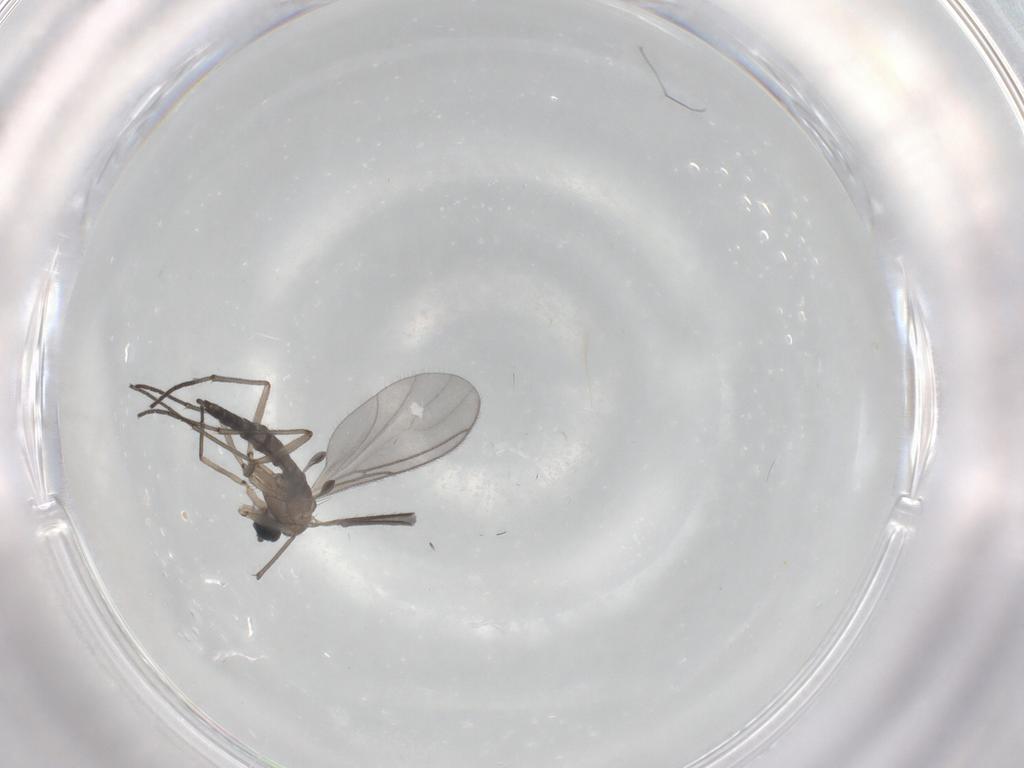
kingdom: Animalia
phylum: Arthropoda
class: Insecta
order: Diptera
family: Sciaridae
